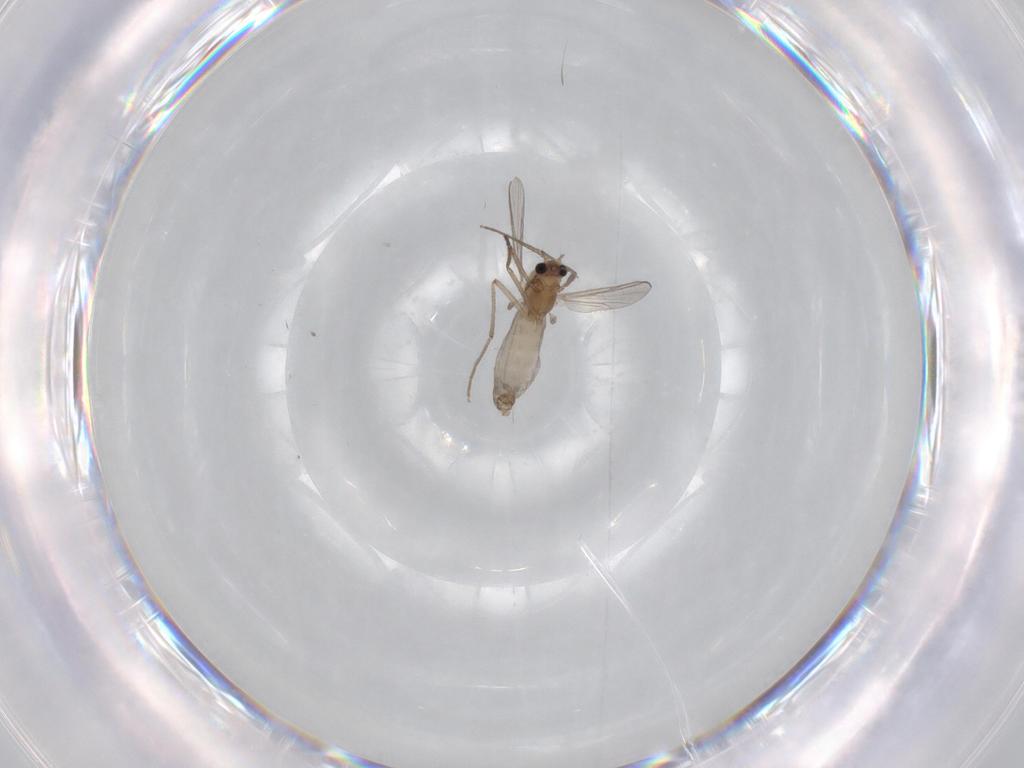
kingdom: Animalia
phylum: Arthropoda
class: Insecta
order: Diptera
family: Chironomidae
